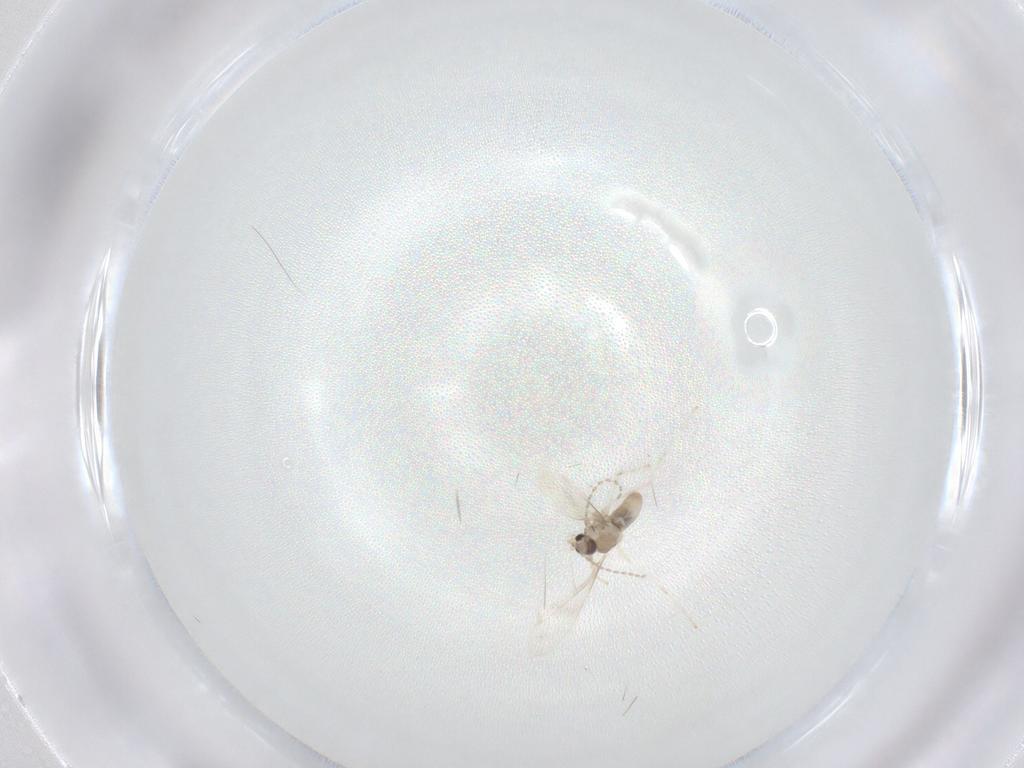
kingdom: Animalia
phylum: Arthropoda
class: Insecta
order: Diptera
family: Cecidomyiidae
